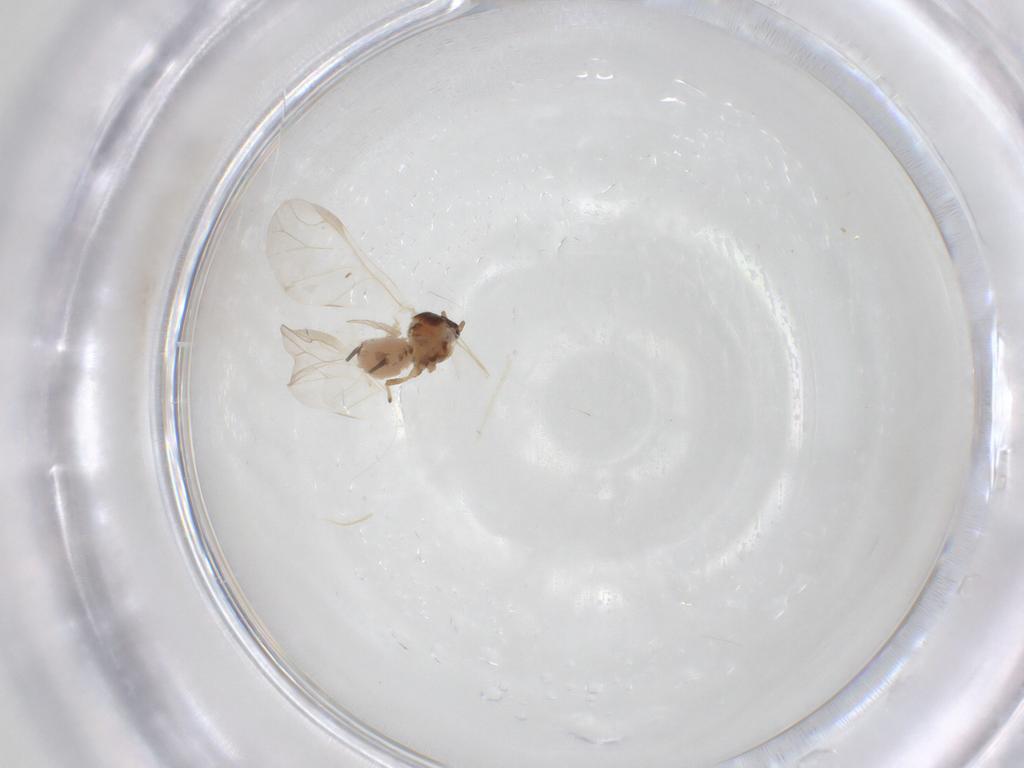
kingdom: Animalia
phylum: Arthropoda
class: Insecta
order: Hemiptera
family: Aphididae
